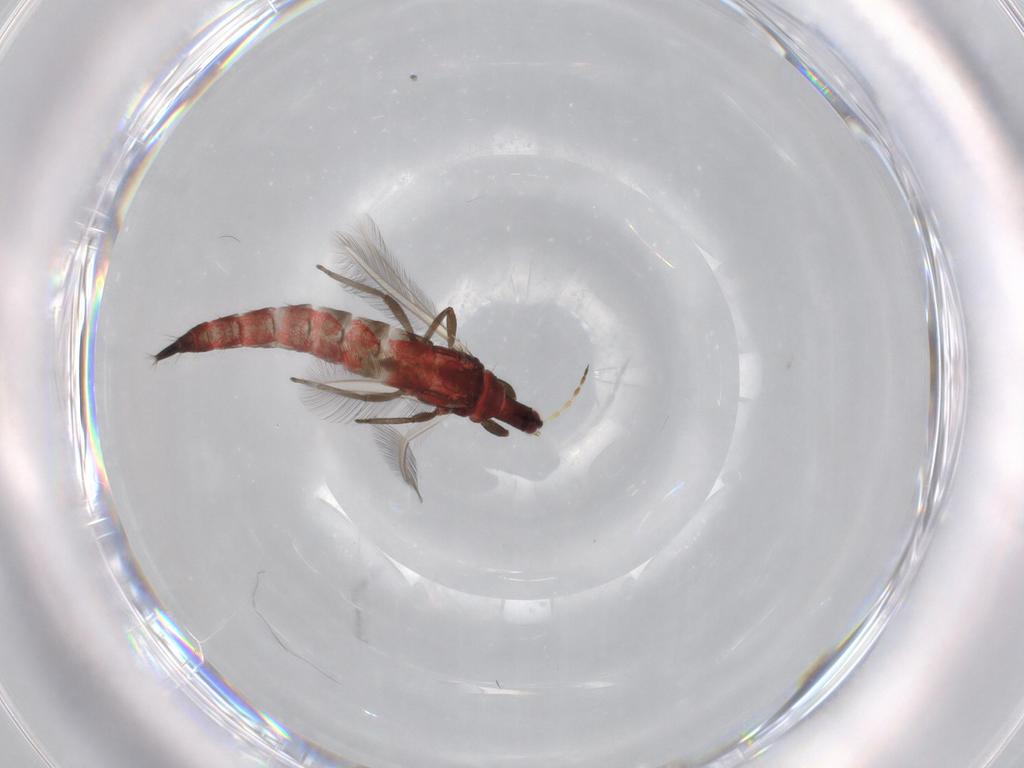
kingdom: Animalia
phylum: Arthropoda
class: Insecta
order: Thysanoptera
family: Phlaeothripidae
